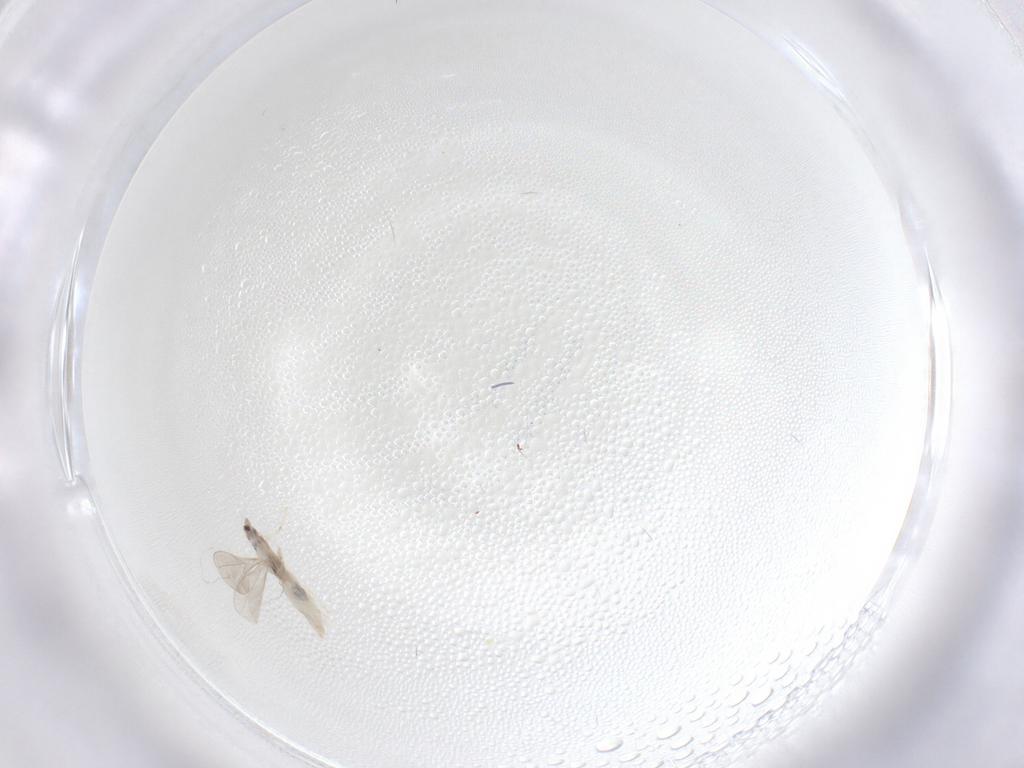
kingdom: Animalia
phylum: Arthropoda
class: Insecta
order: Diptera
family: Cecidomyiidae
